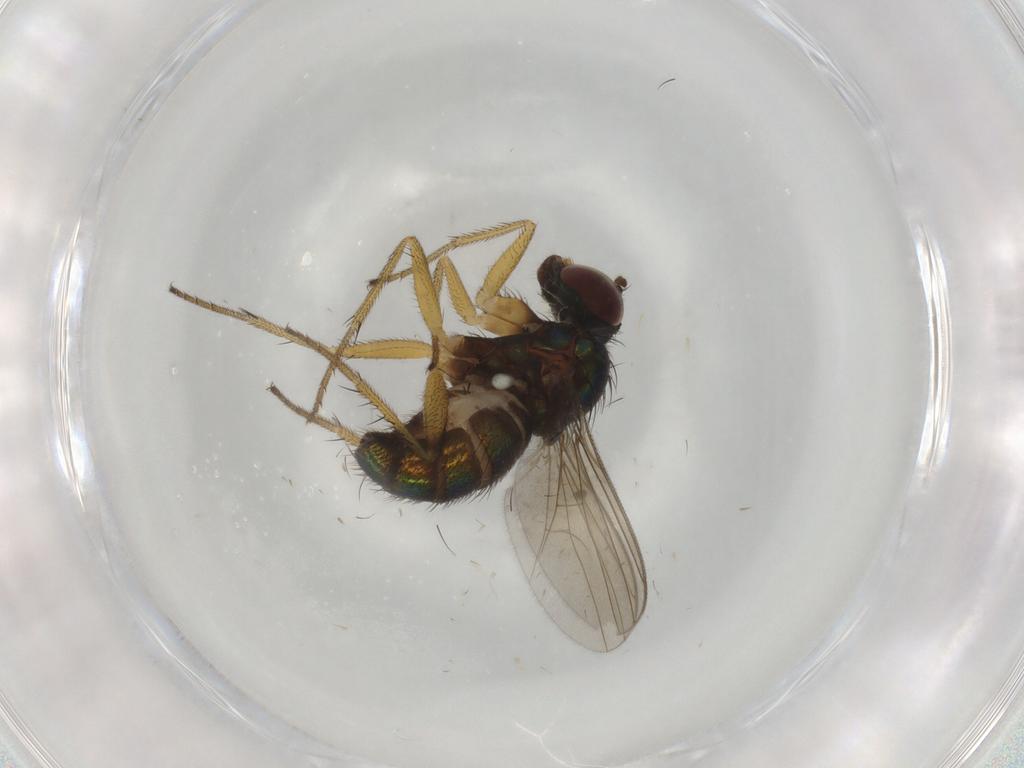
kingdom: Animalia
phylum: Arthropoda
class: Insecta
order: Diptera
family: Dolichopodidae
